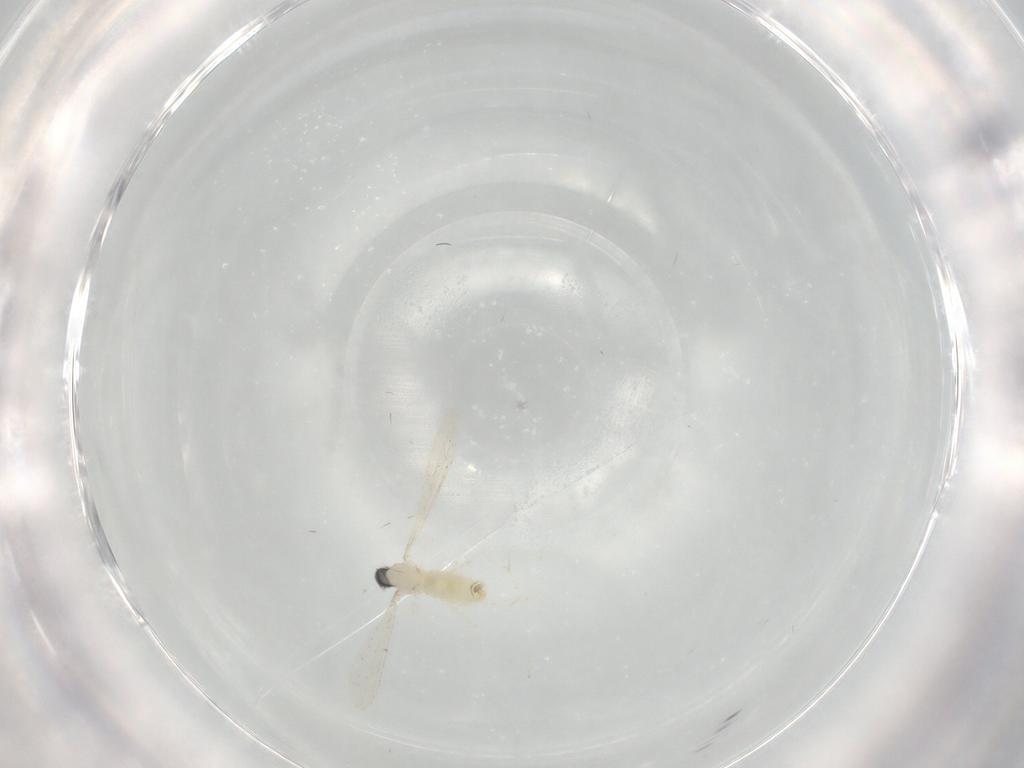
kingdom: Animalia
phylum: Arthropoda
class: Insecta
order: Diptera
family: Cecidomyiidae
